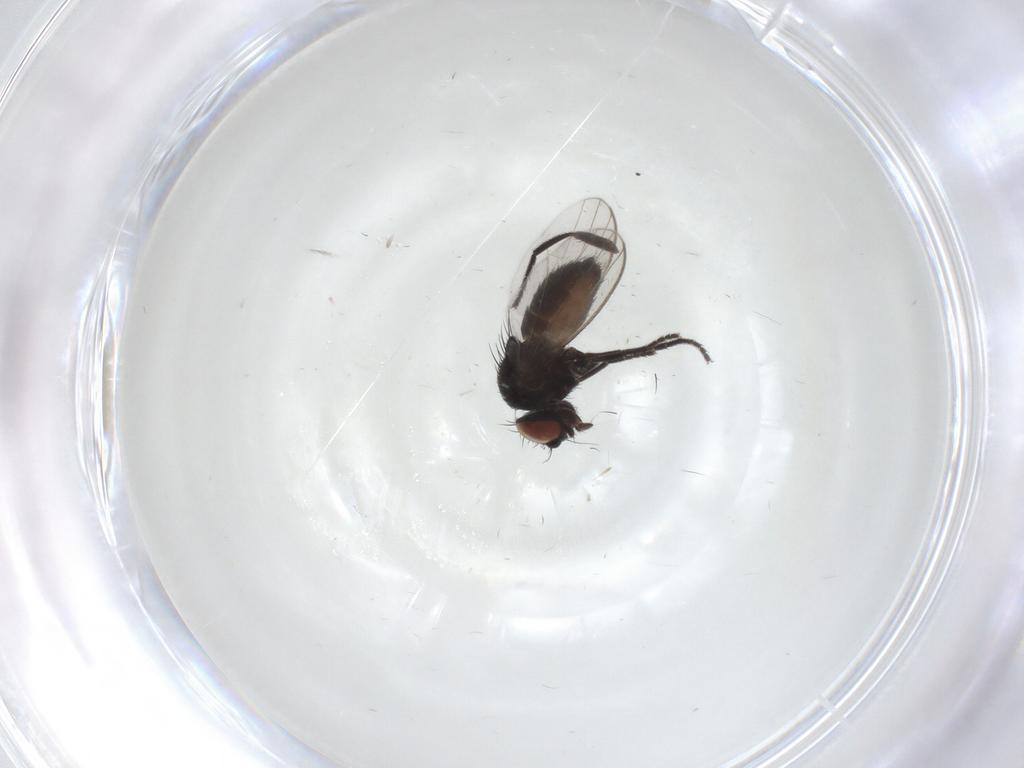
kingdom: Animalia
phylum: Arthropoda
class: Insecta
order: Diptera
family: Milichiidae
